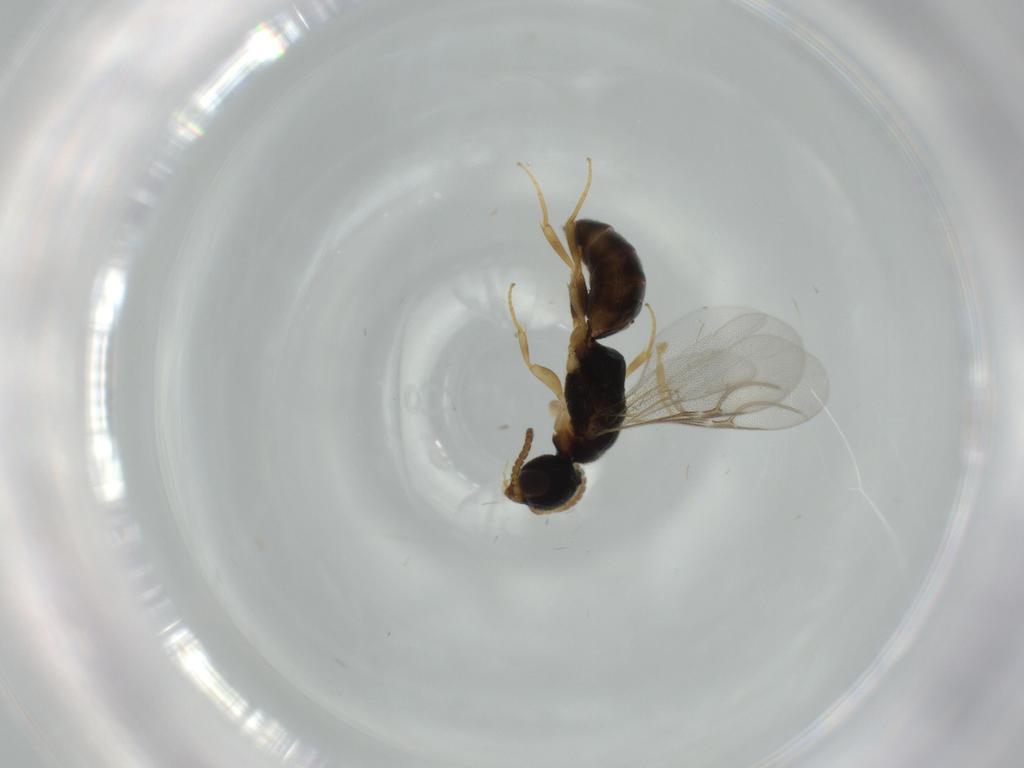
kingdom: Animalia
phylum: Arthropoda
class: Insecta
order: Hymenoptera
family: Bethylidae
